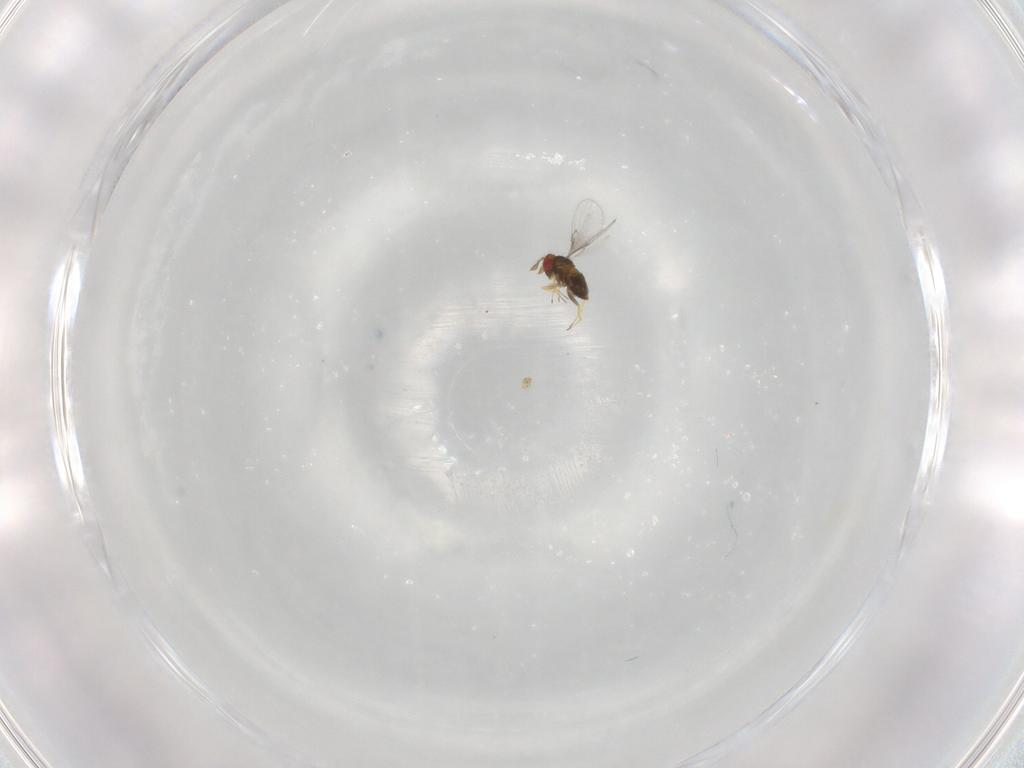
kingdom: Animalia
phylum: Arthropoda
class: Insecta
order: Hymenoptera
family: Trichogrammatidae
